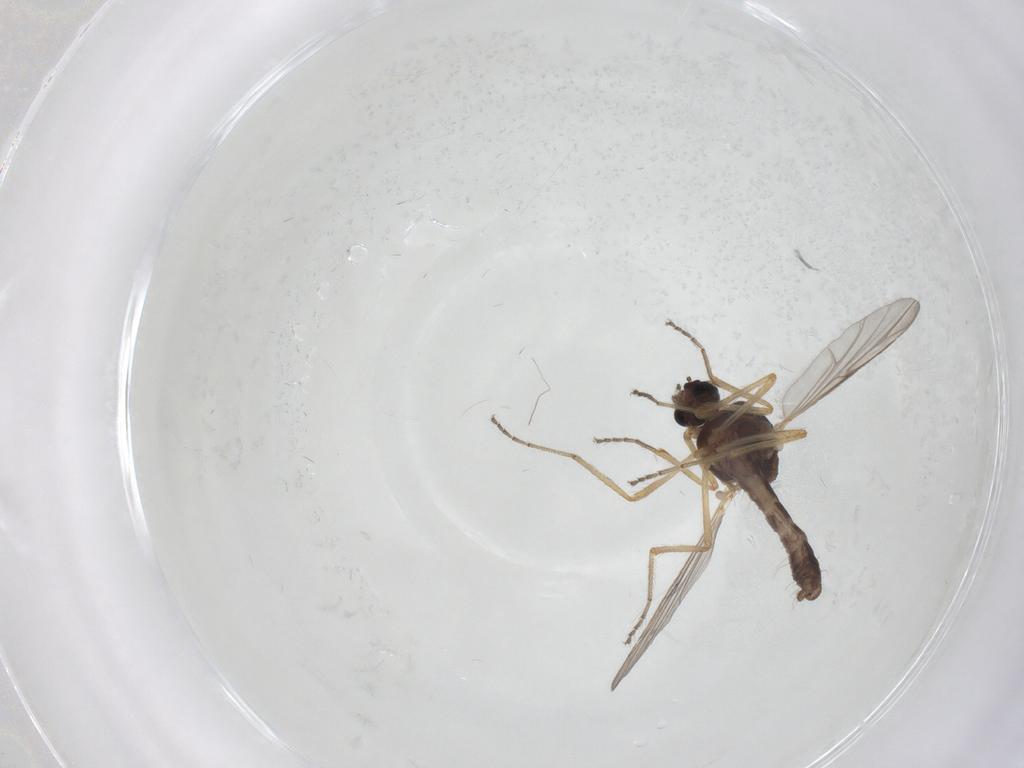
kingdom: Animalia
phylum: Arthropoda
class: Insecta
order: Diptera
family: Ceratopogonidae
